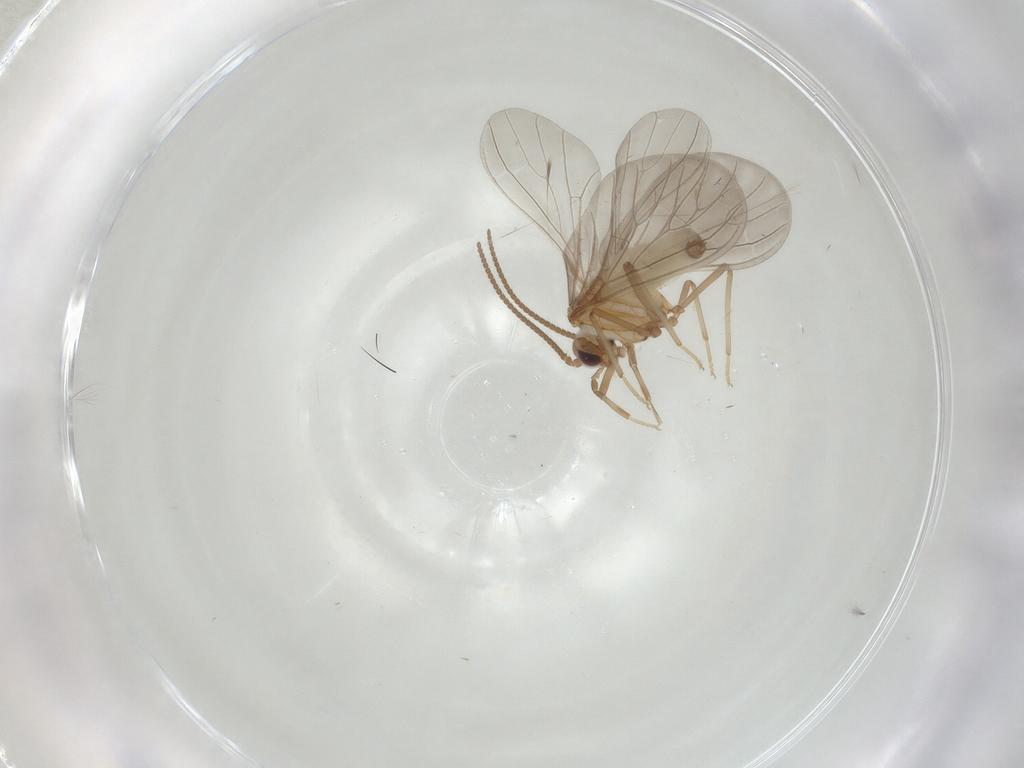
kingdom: Animalia
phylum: Arthropoda
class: Insecta
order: Neuroptera
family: Coniopterygidae
